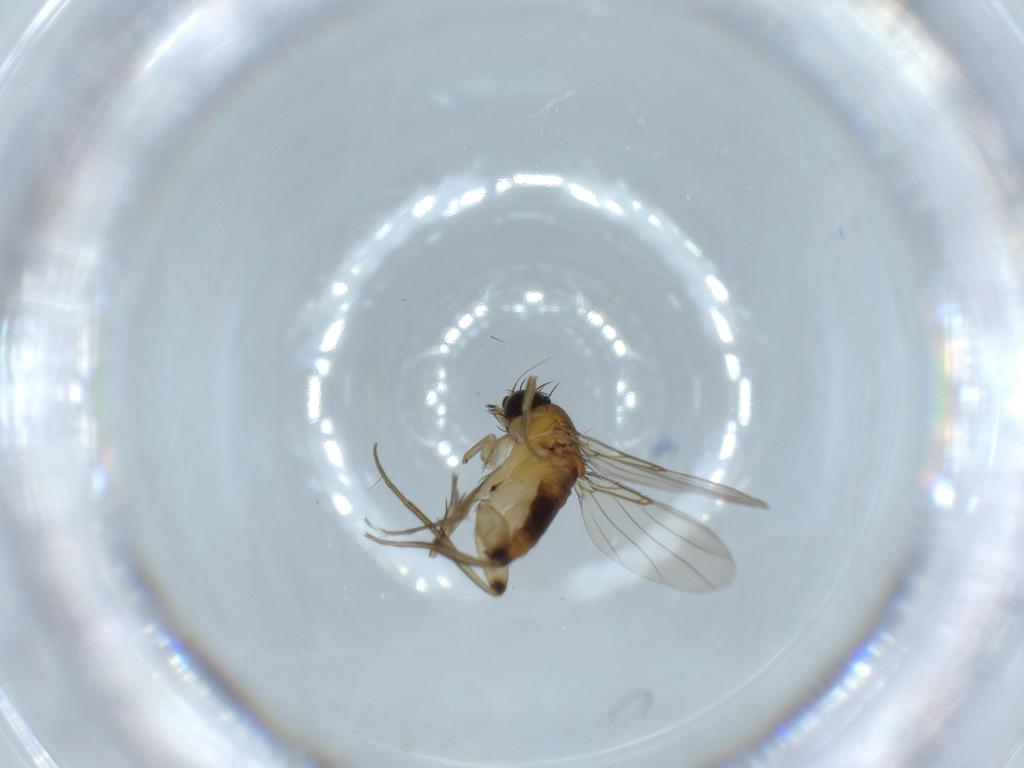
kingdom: Animalia
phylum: Arthropoda
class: Insecta
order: Diptera
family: Phoridae
